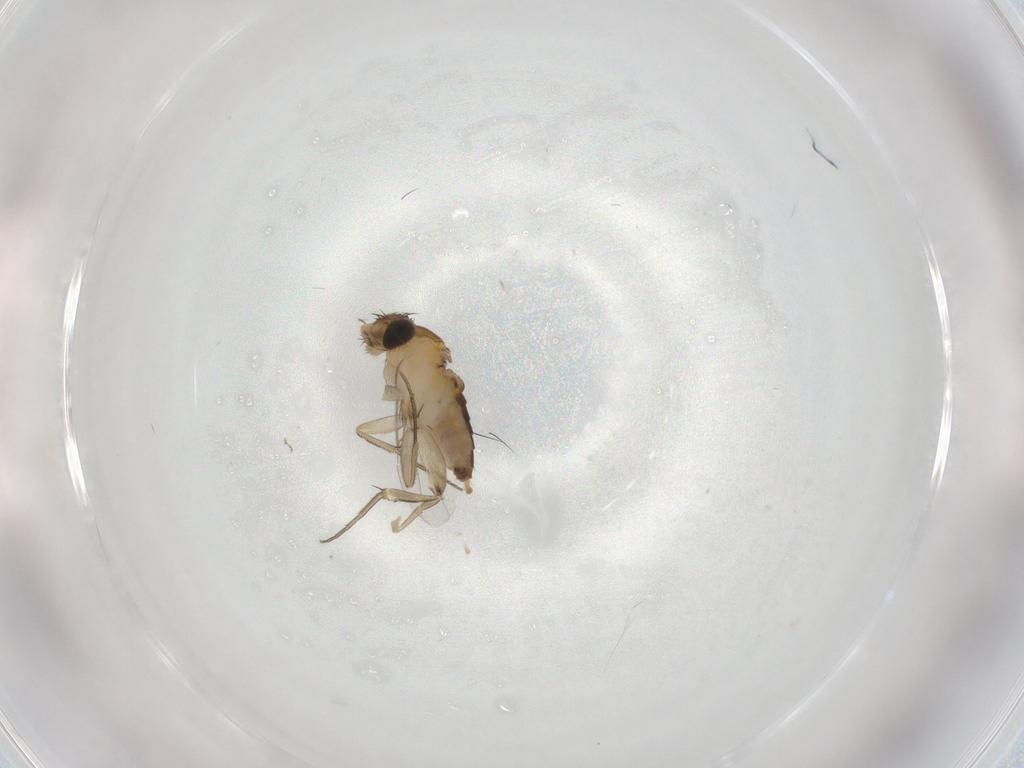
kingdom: Animalia
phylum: Arthropoda
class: Insecta
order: Diptera
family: Phoridae
